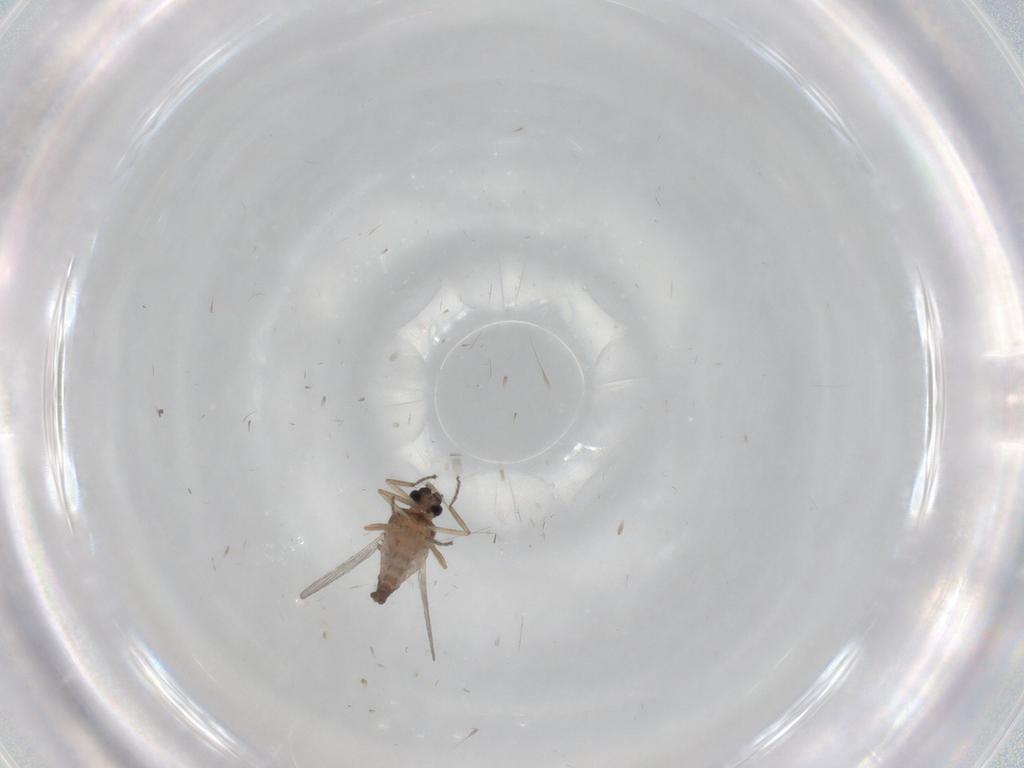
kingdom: Animalia
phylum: Arthropoda
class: Insecta
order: Diptera
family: Ceratopogonidae
